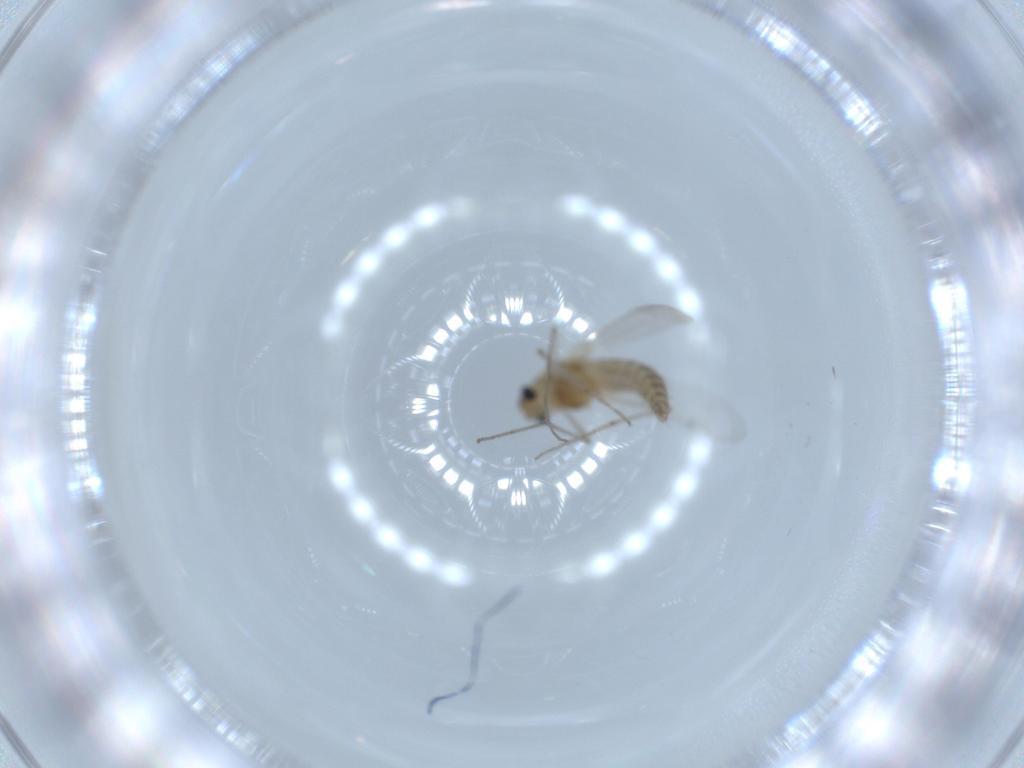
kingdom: Animalia
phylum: Arthropoda
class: Insecta
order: Diptera
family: Chironomidae
